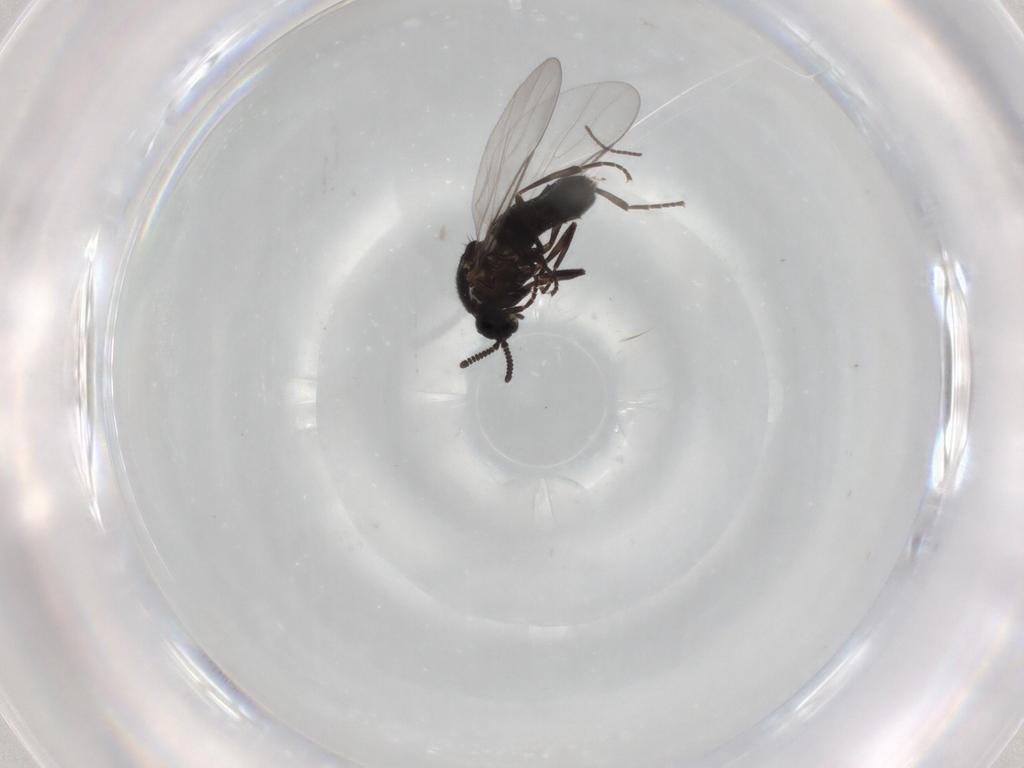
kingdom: Animalia
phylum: Arthropoda
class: Insecta
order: Diptera
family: Scatopsidae
